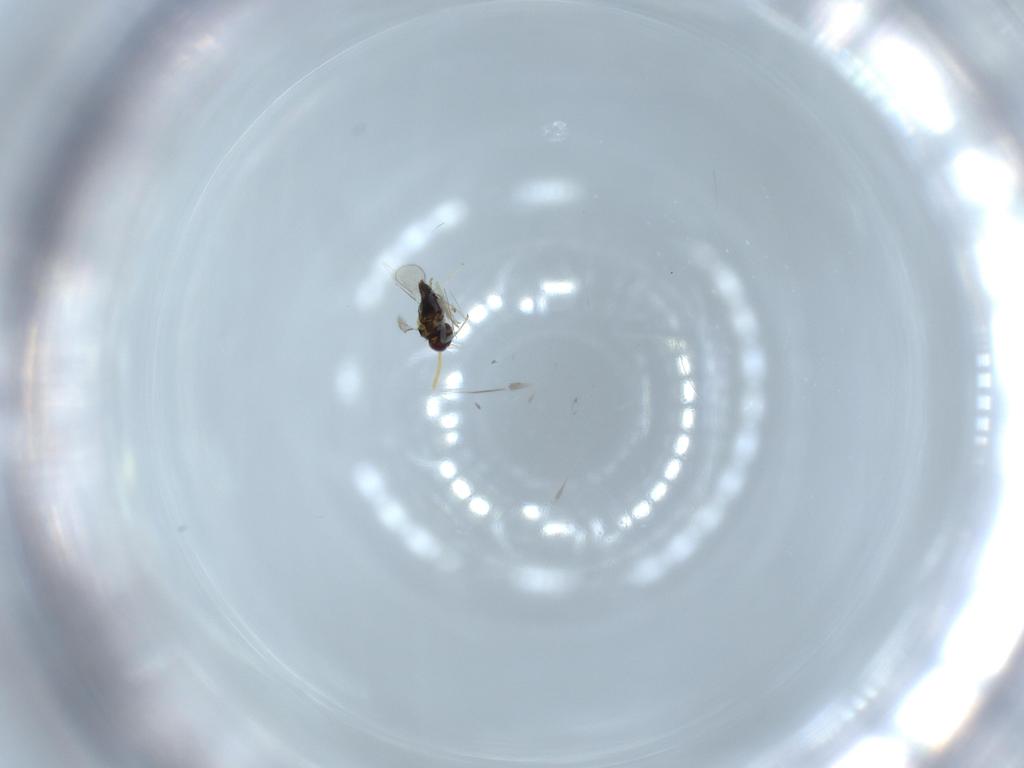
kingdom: Animalia
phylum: Arthropoda
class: Insecta
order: Hymenoptera
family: Aphelinidae
